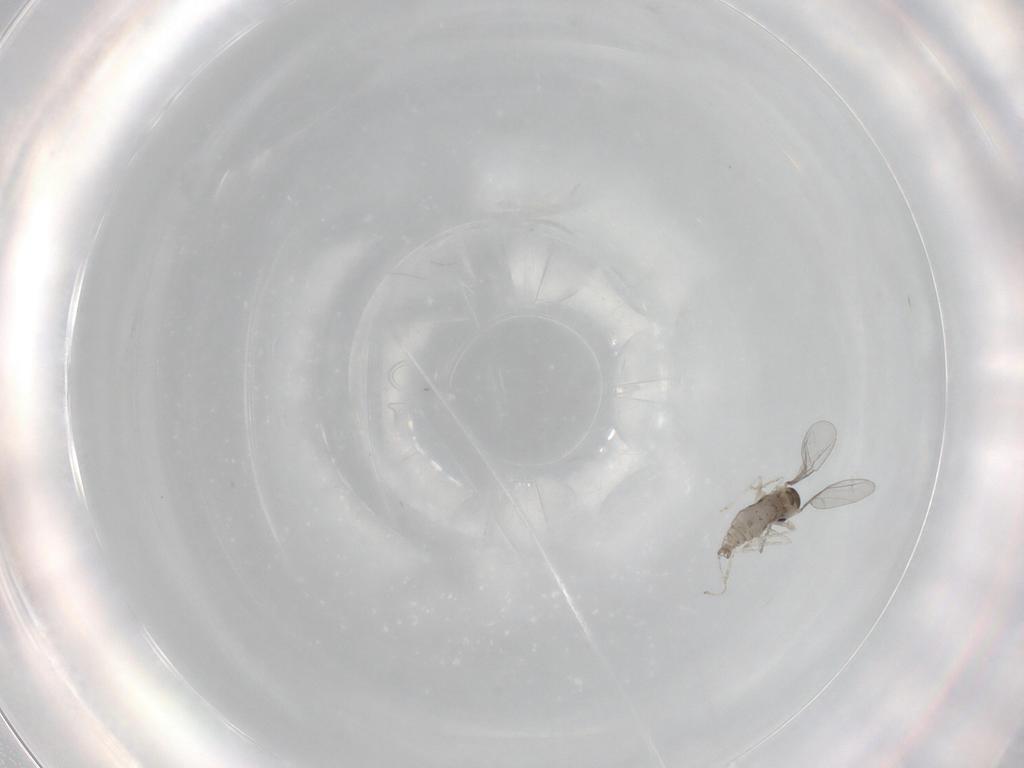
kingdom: Animalia
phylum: Arthropoda
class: Insecta
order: Diptera
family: Cecidomyiidae
